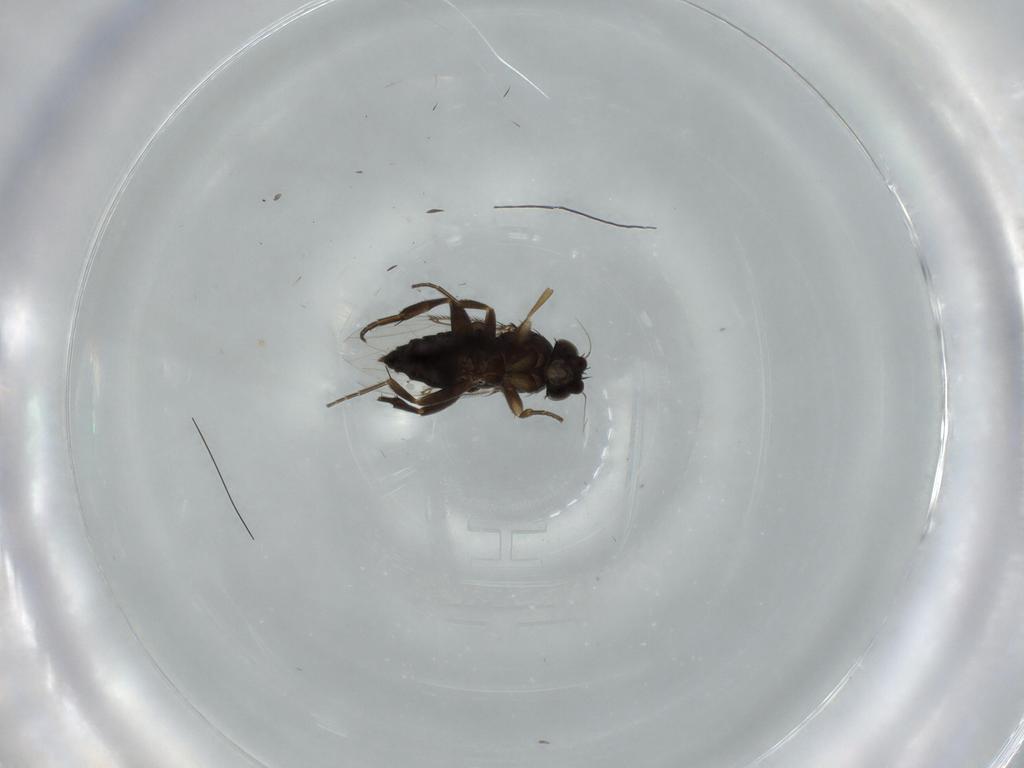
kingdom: Animalia
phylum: Arthropoda
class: Insecta
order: Diptera
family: Phoridae
